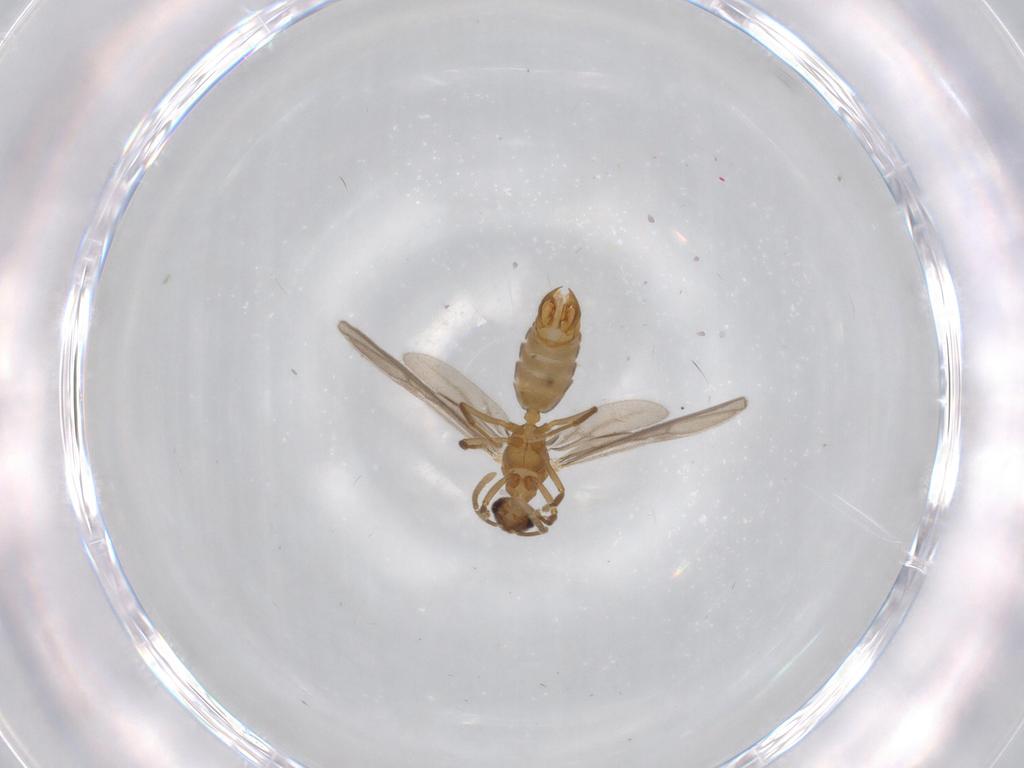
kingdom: Animalia
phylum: Arthropoda
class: Insecta
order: Hymenoptera
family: Formicidae
